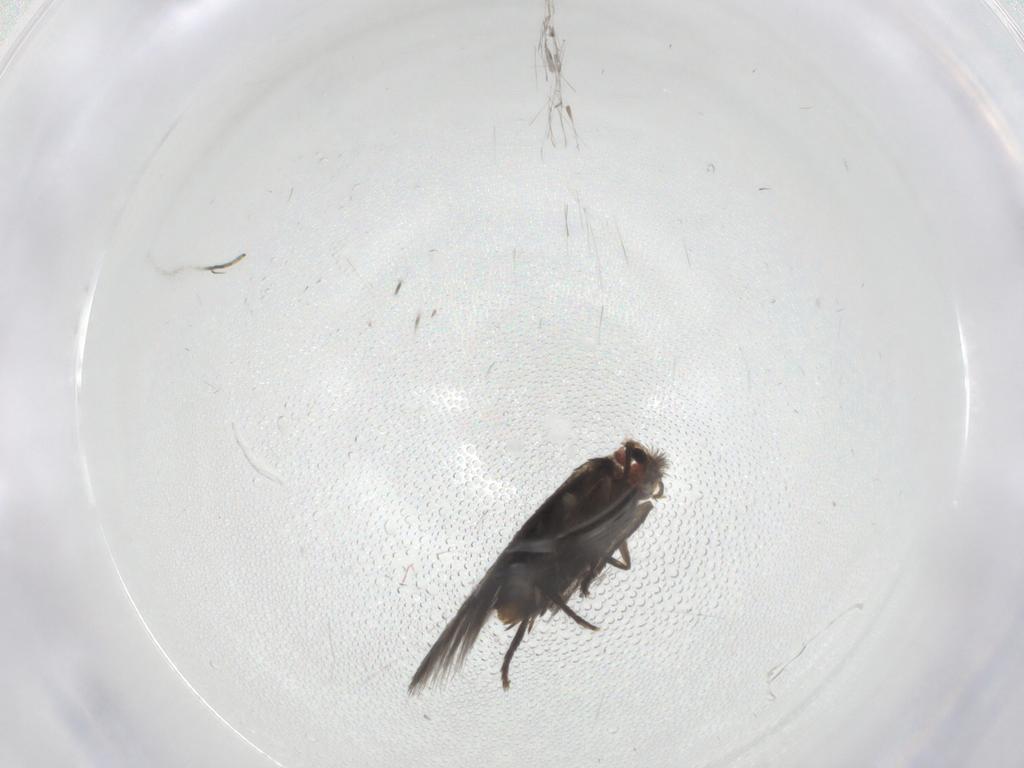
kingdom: Animalia
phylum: Arthropoda
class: Insecta
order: Lepidoptera
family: Nepticulidae
